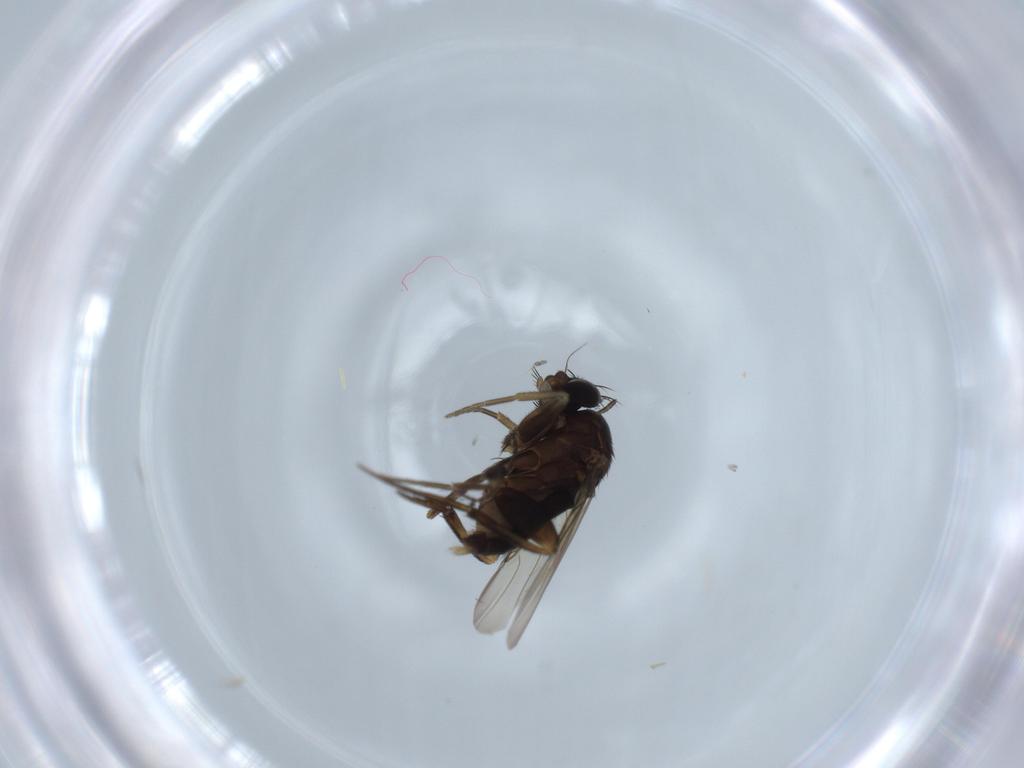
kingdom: Animalia
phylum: Arthropoda
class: Insecta
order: Diptera
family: Phoridae
